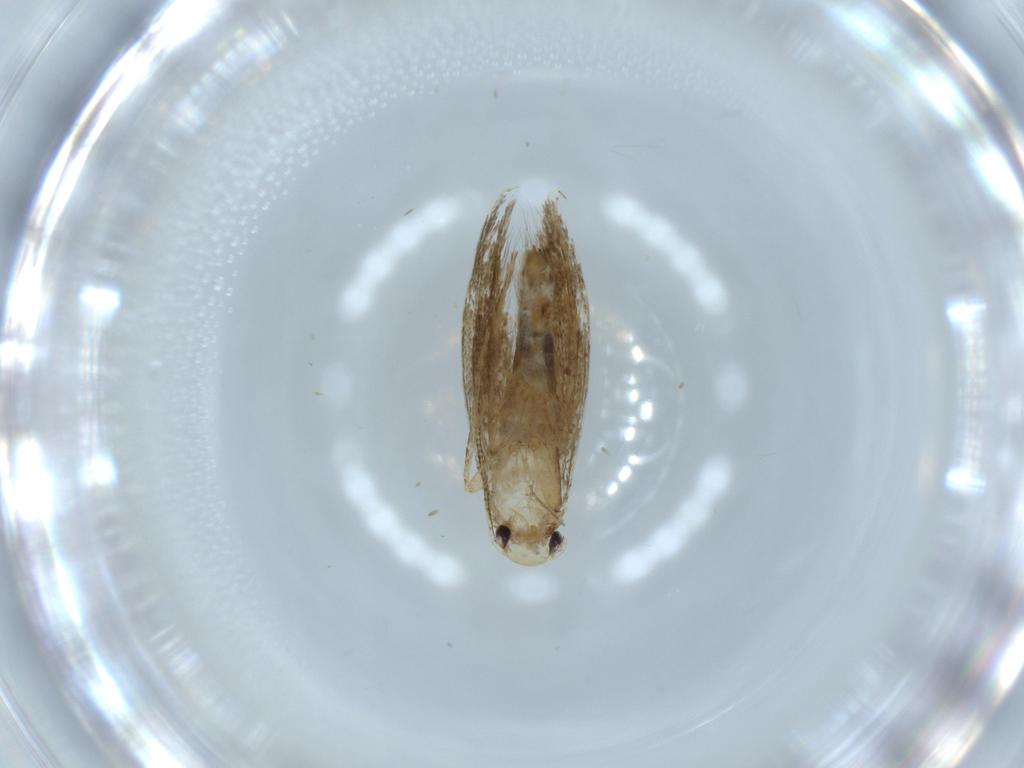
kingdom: Animalia
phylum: Arthropoda
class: Insecta
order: Lepidoptera
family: Tineidae
